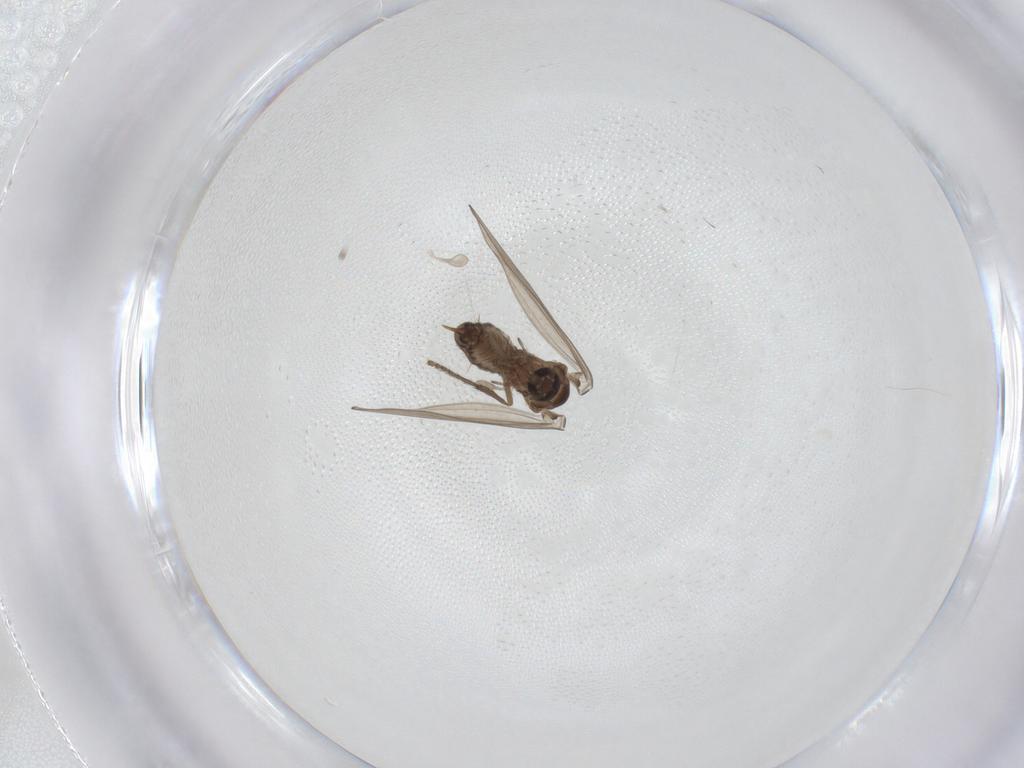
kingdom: Animalia
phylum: Arthropoda
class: Insecta
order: Diptera
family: Psychodidae
